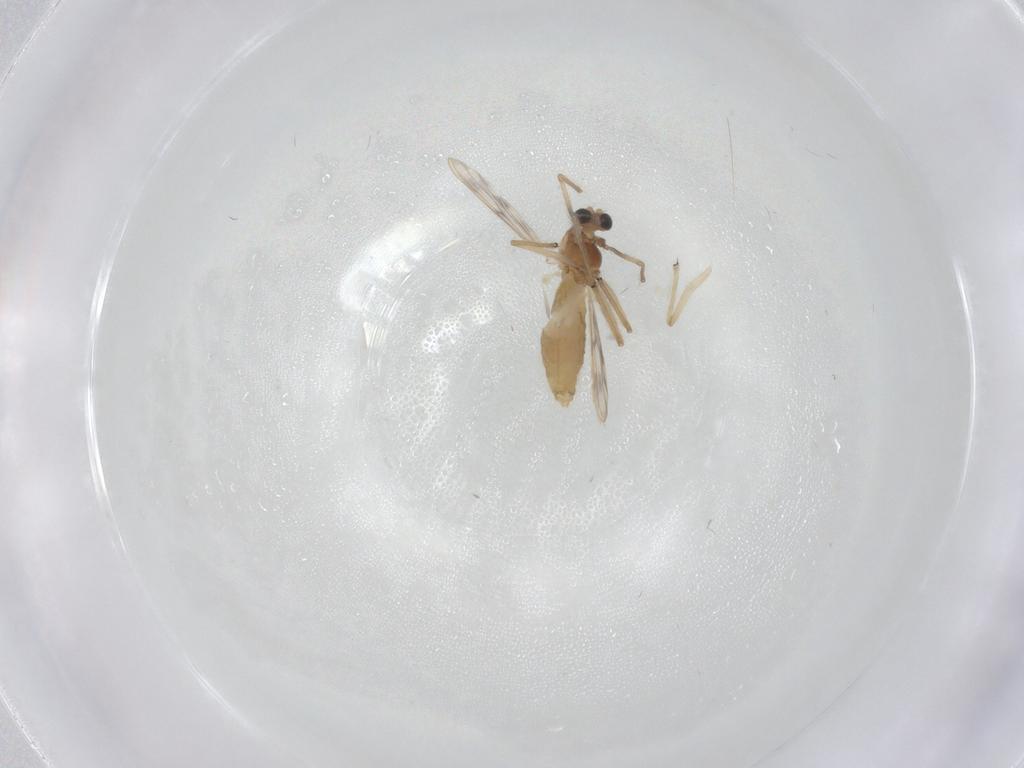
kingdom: Animalia
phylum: Arthropoda
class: Insecta
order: Diptera
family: Chironomidae
